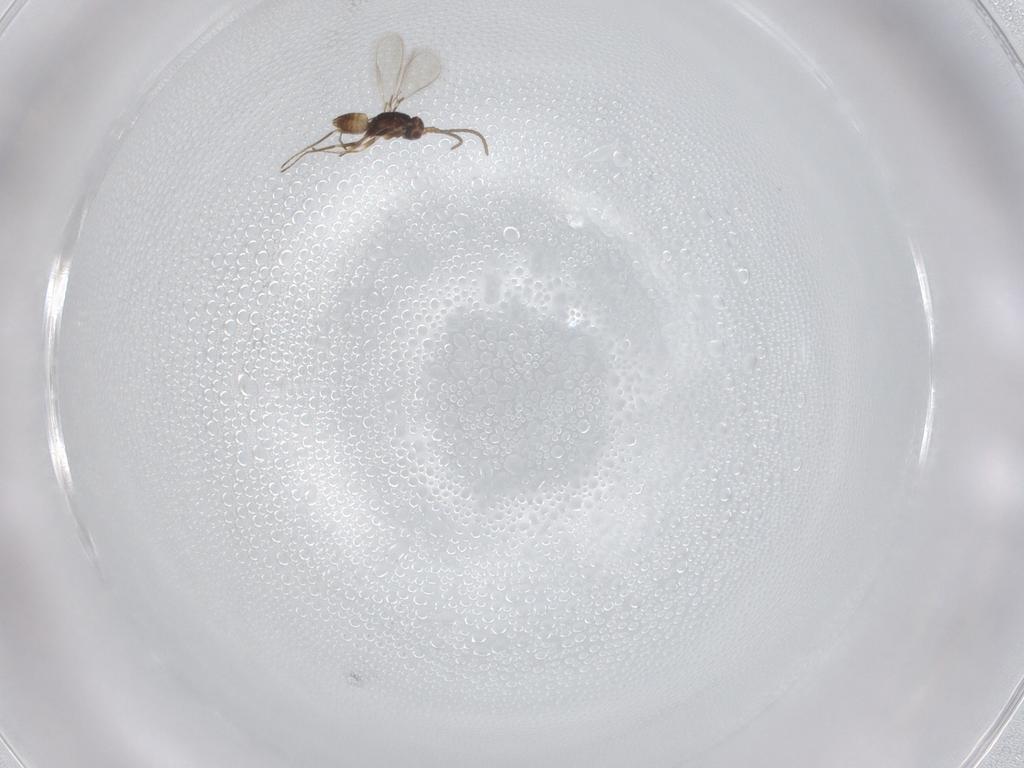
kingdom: Animalia
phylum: Arthropoda
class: Insecta
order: Hymenoptera
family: Mymaridae
